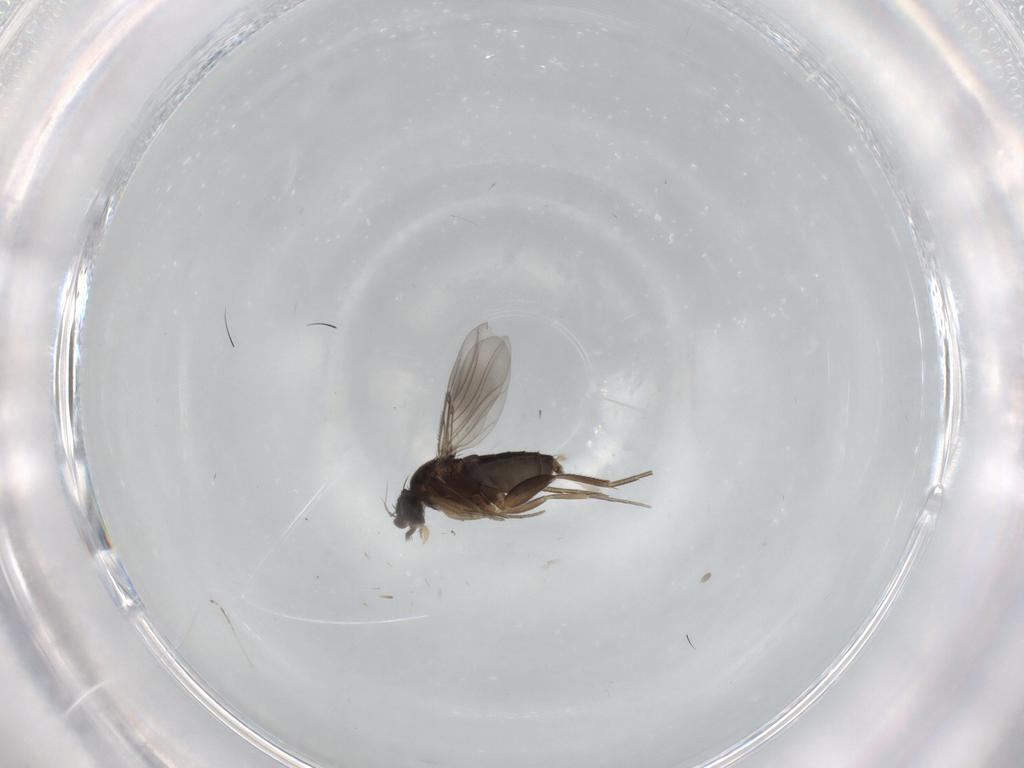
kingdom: Animalia
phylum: Arthropoda
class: Insecta
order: Diptera
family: Phoridae
